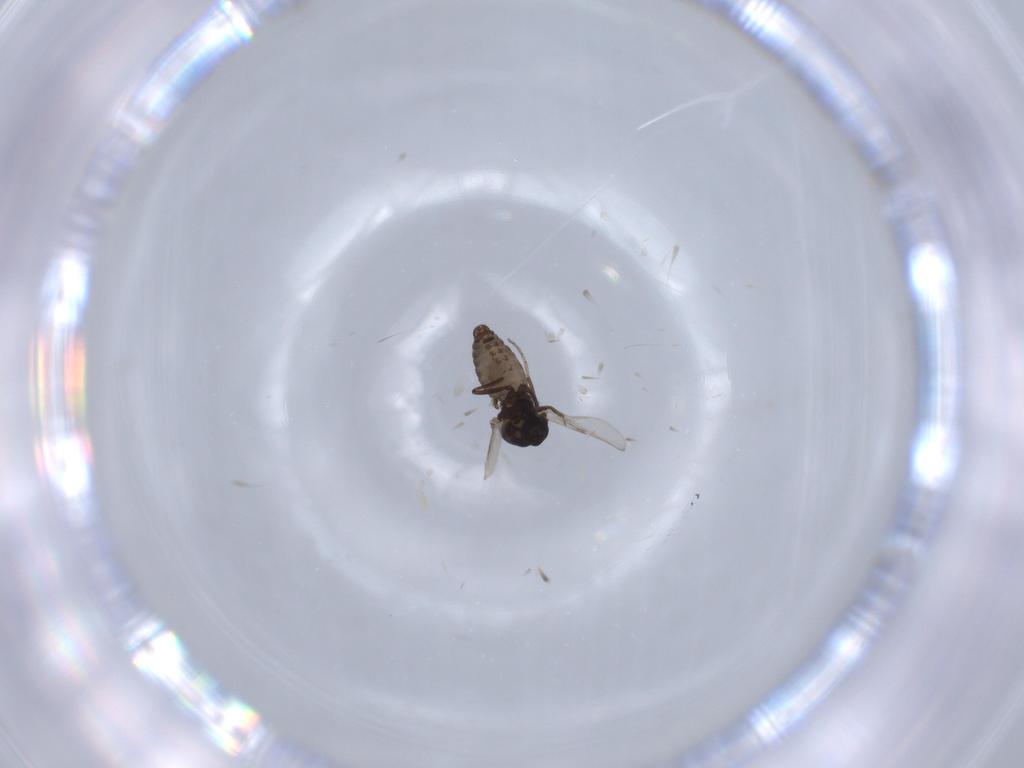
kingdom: Animalia
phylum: Arthropoda
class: Insecta
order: Diptera
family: Ceratopogonidae
